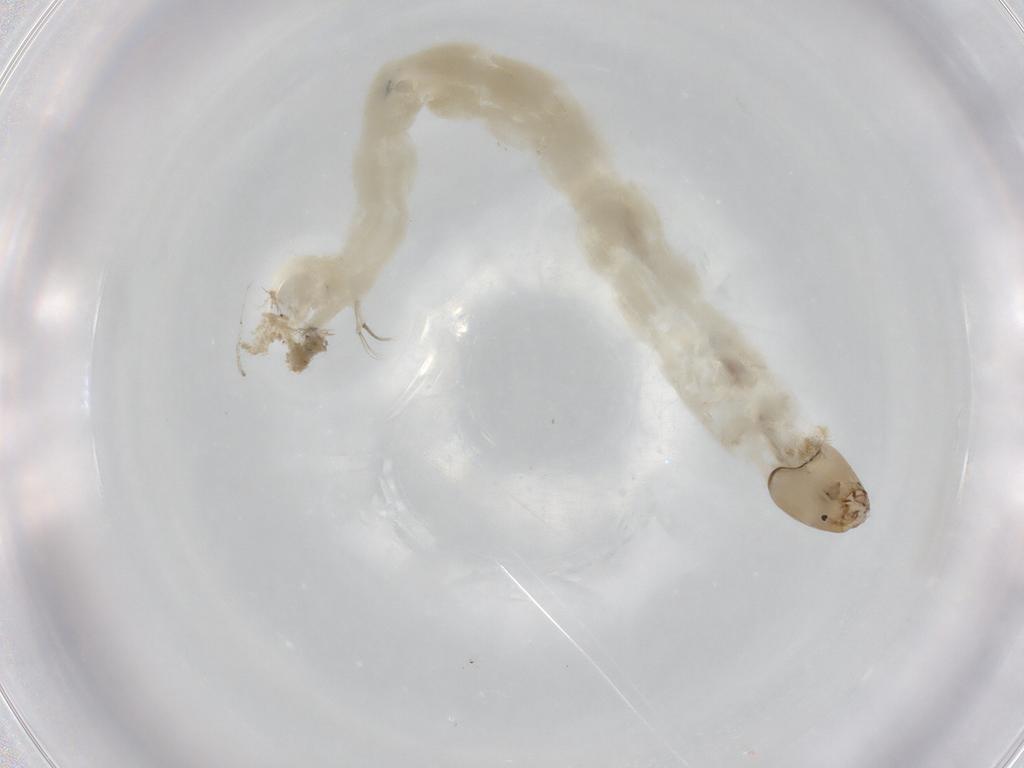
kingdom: Animalia
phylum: Arthropoda
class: Insecta
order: Diptera
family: Chironomidae
